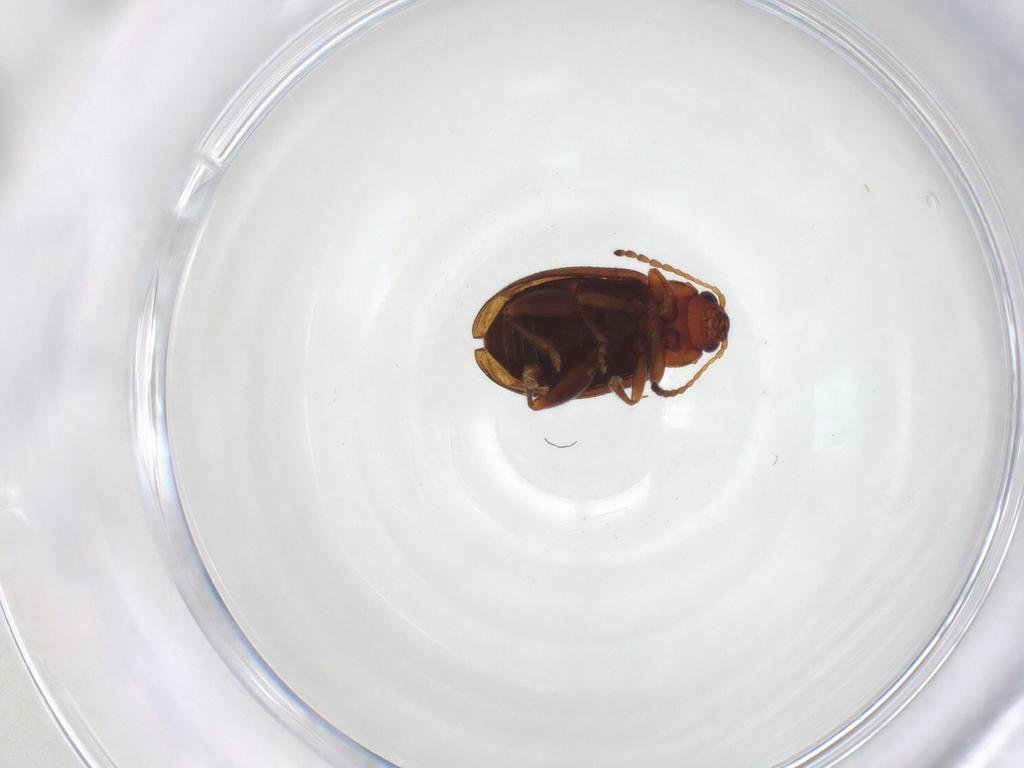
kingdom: Animalia
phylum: Arthropoda
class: Insecta
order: Coleoptera
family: Chrysomelidae
